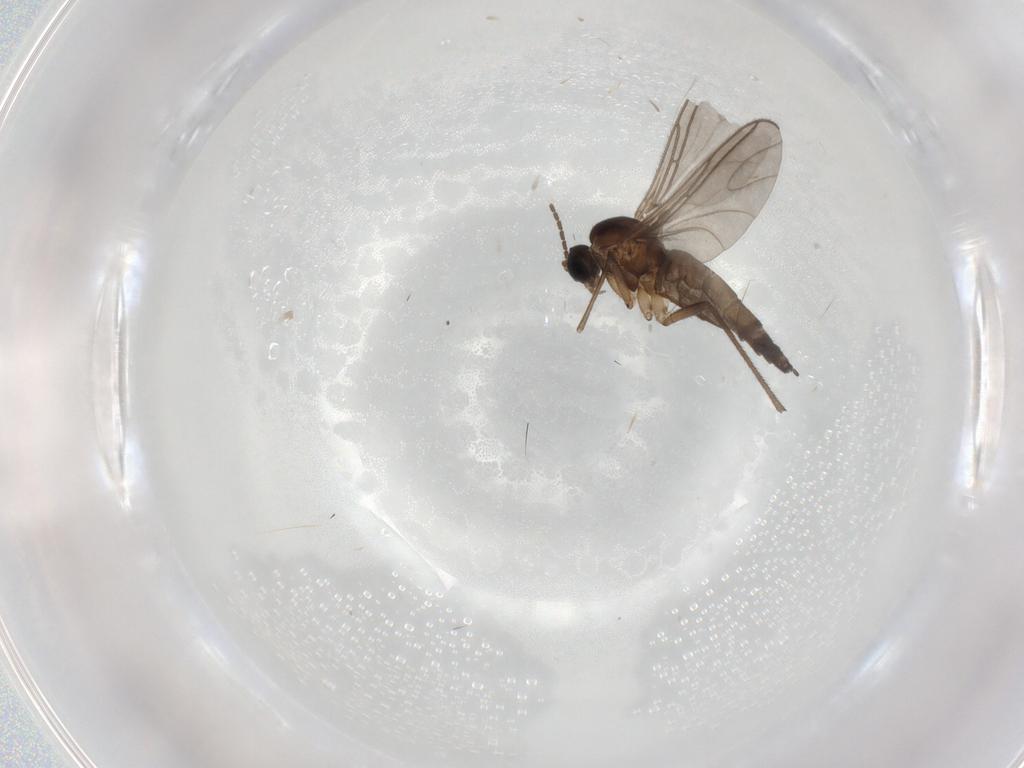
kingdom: Animalia
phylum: Arthropoda
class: Insecta
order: Diptera
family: Sciaridae
